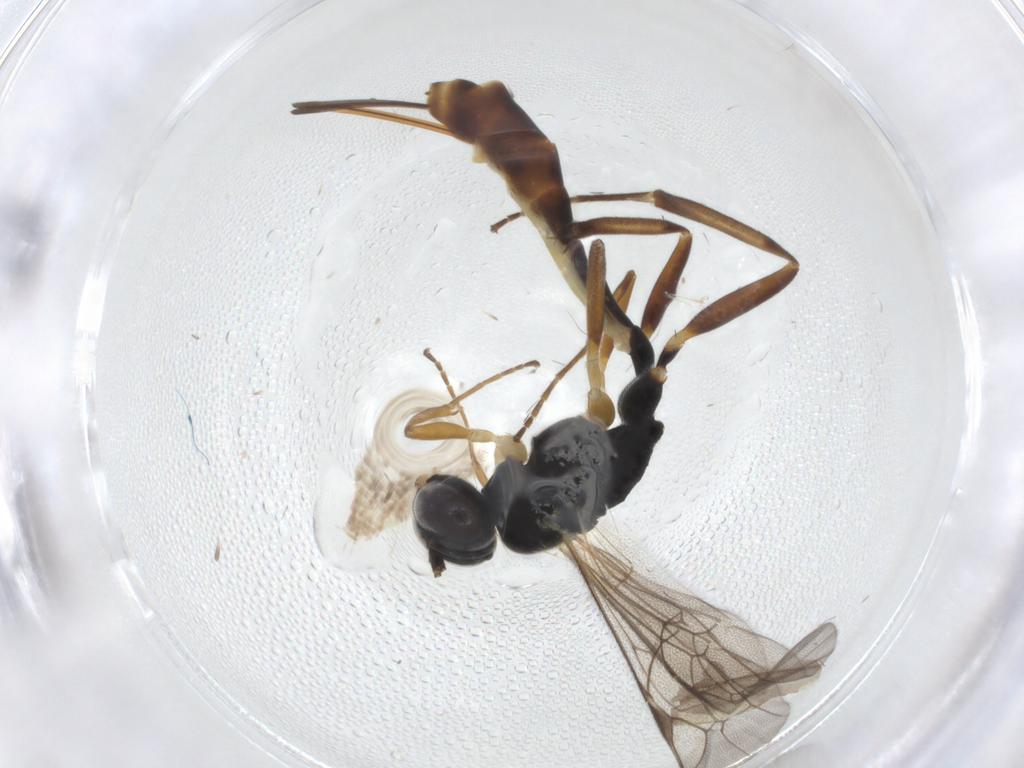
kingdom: Animalia
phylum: Arthropoda
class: Insecta
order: Hymenoptera
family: Ichneumonidae
